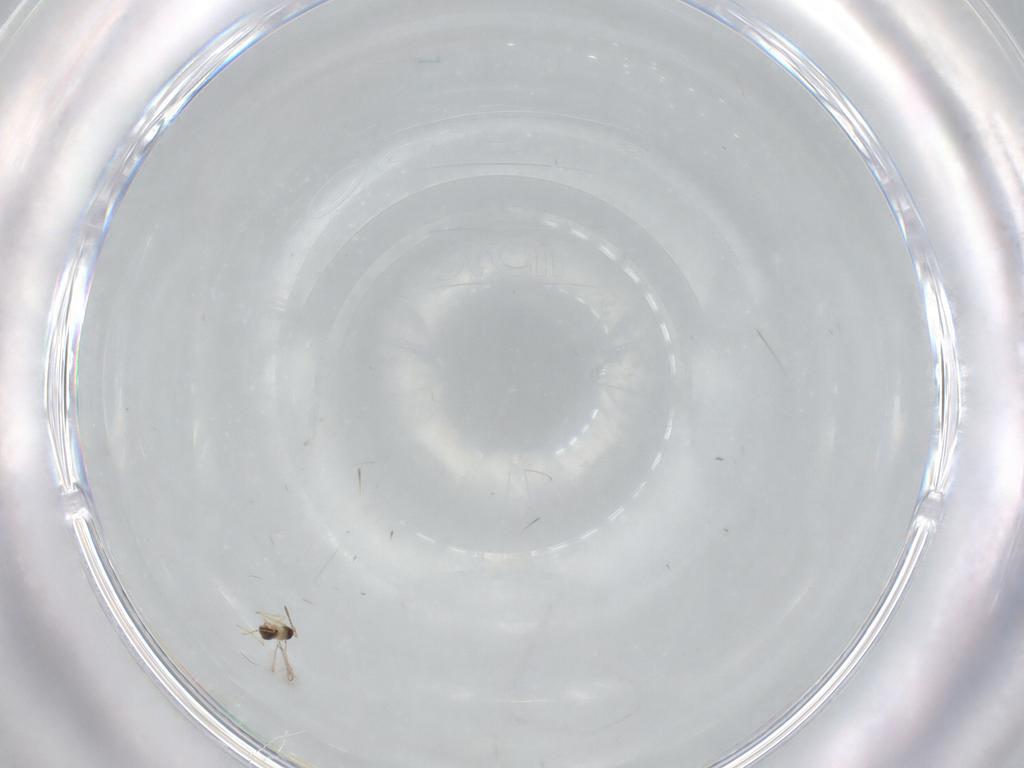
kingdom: Animalia
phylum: Arthropoda
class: Insecta
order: Hymenoptera
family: Mymaridae
